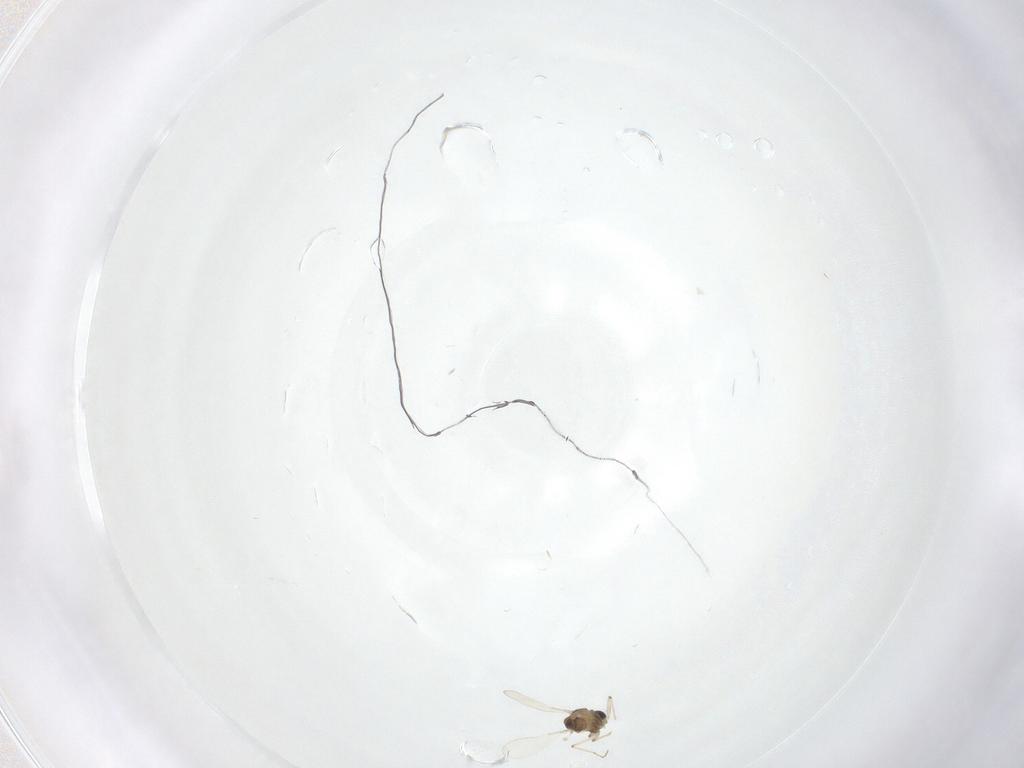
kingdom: Animalia
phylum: Arthropoda
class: Insecta
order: Diptera
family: Chironomidae
